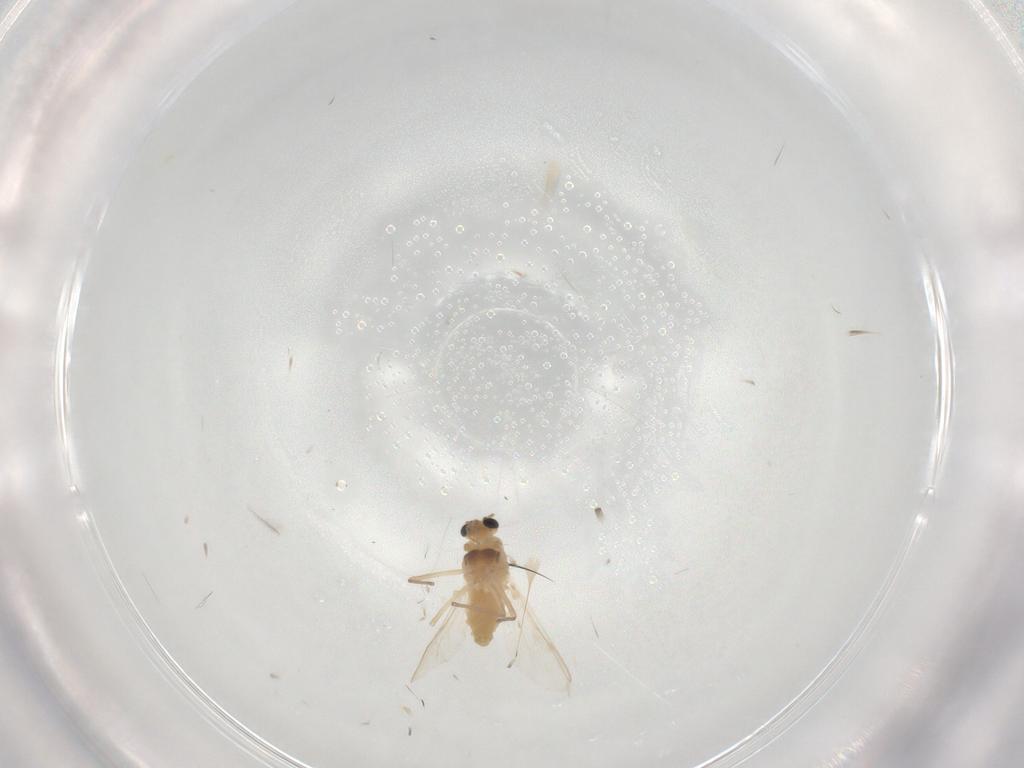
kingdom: Animalia
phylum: Arthropoda
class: Insecta
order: Diptera
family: Chironomidae
